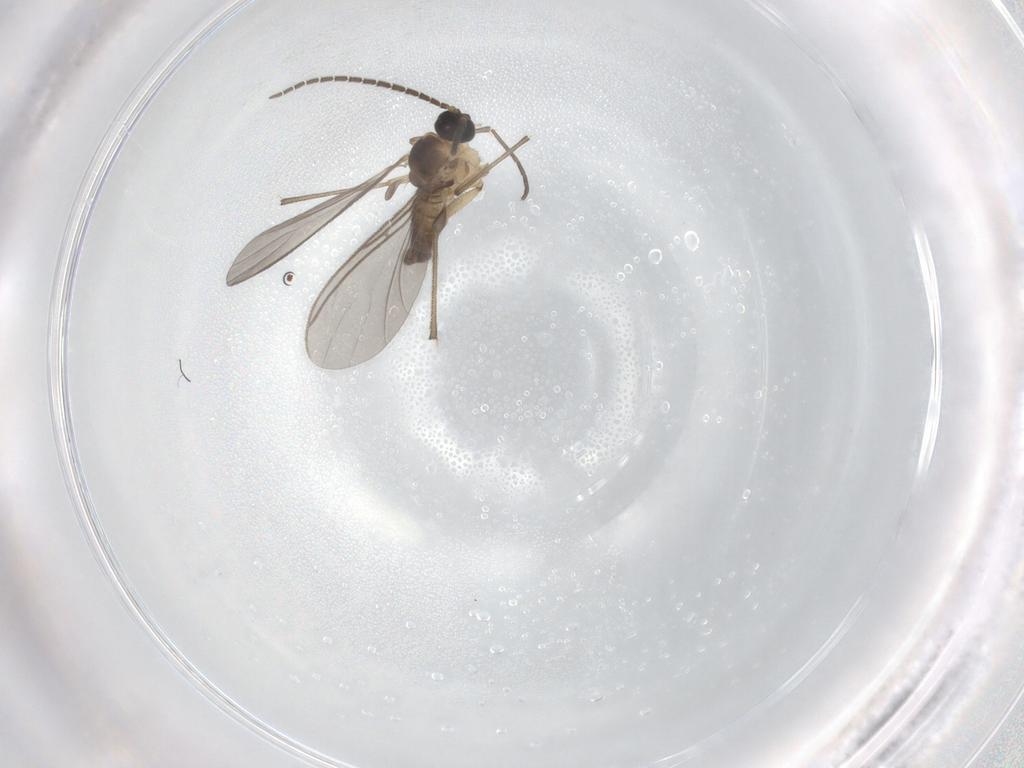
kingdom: Animalia
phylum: Arthropoda
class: Insecta
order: Diptera
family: Sciaridae
